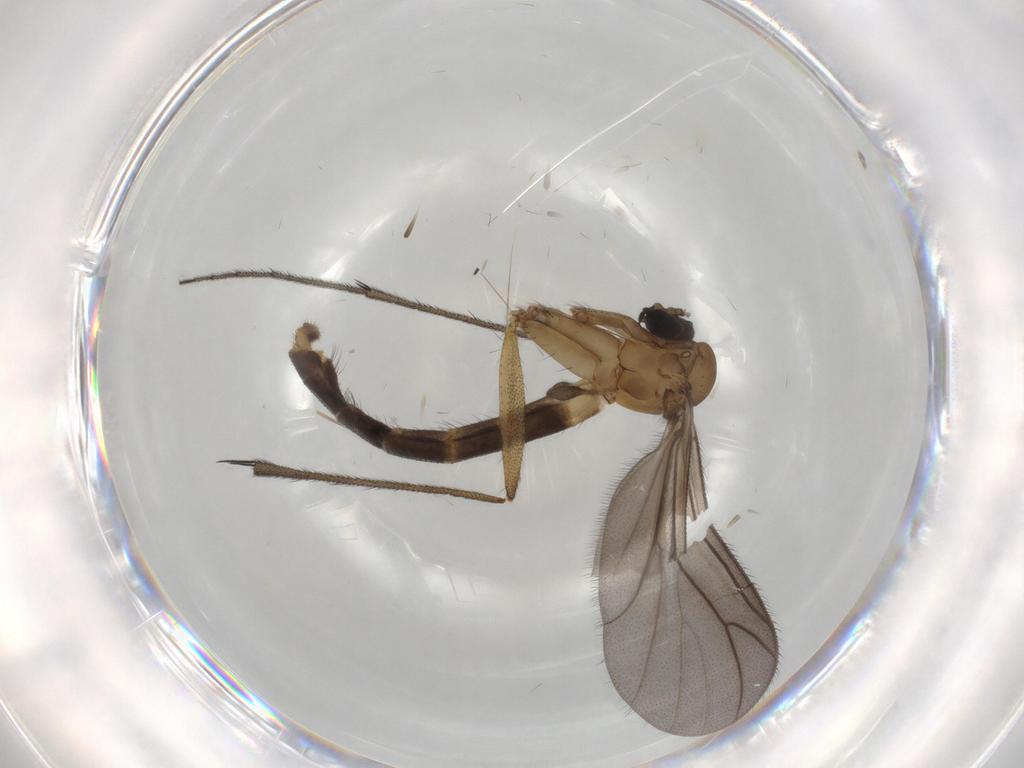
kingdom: Animalia
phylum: Arthropoda
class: Insecta
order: Diptera
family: Ditomyiidae
